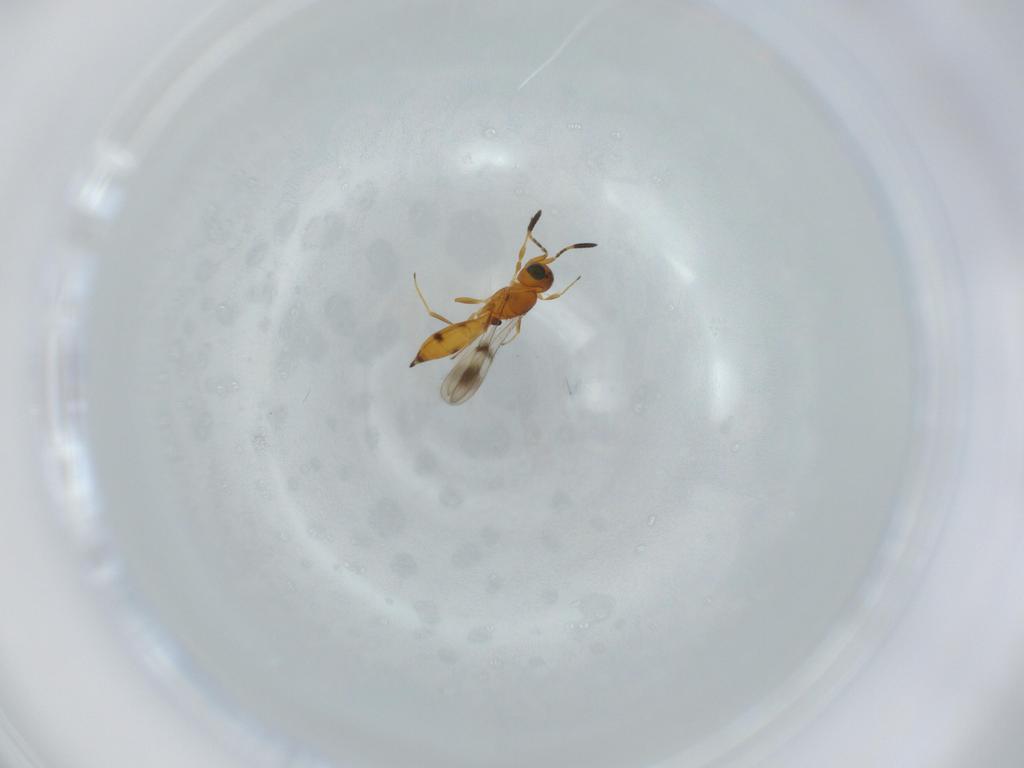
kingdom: Animalia
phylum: Arthropoda
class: Insecta
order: Hymenoptera
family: Scelionidae
